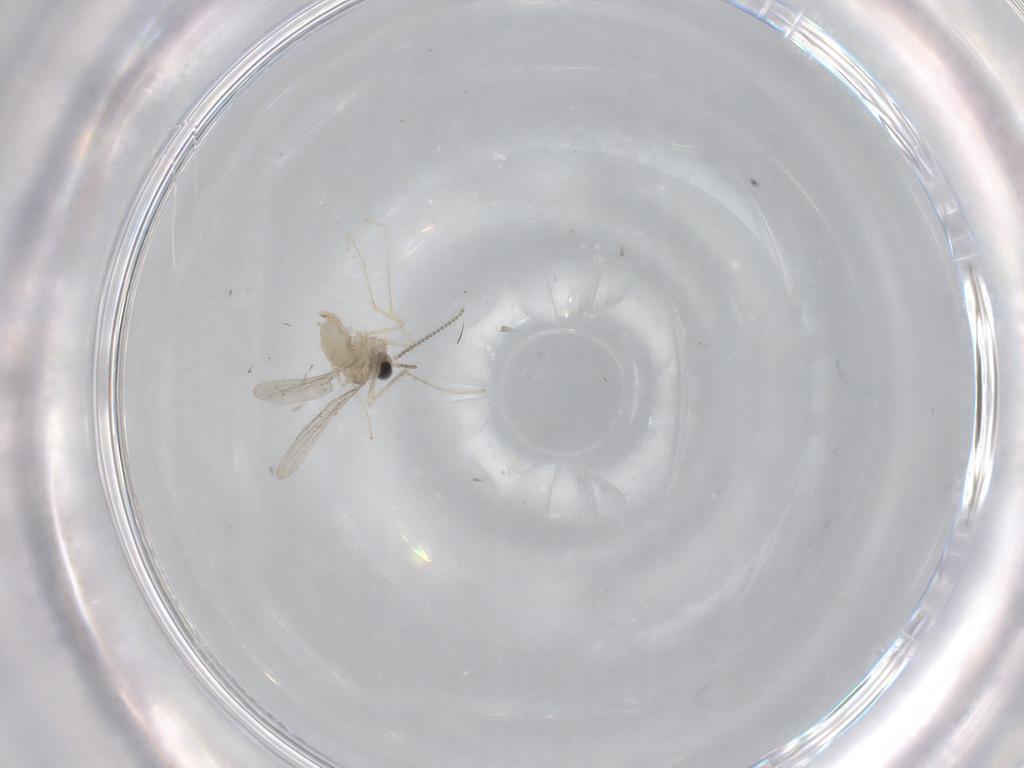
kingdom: Animalia
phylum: Arthropoda
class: Insecta
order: Diptera
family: Cecidomyiidae
